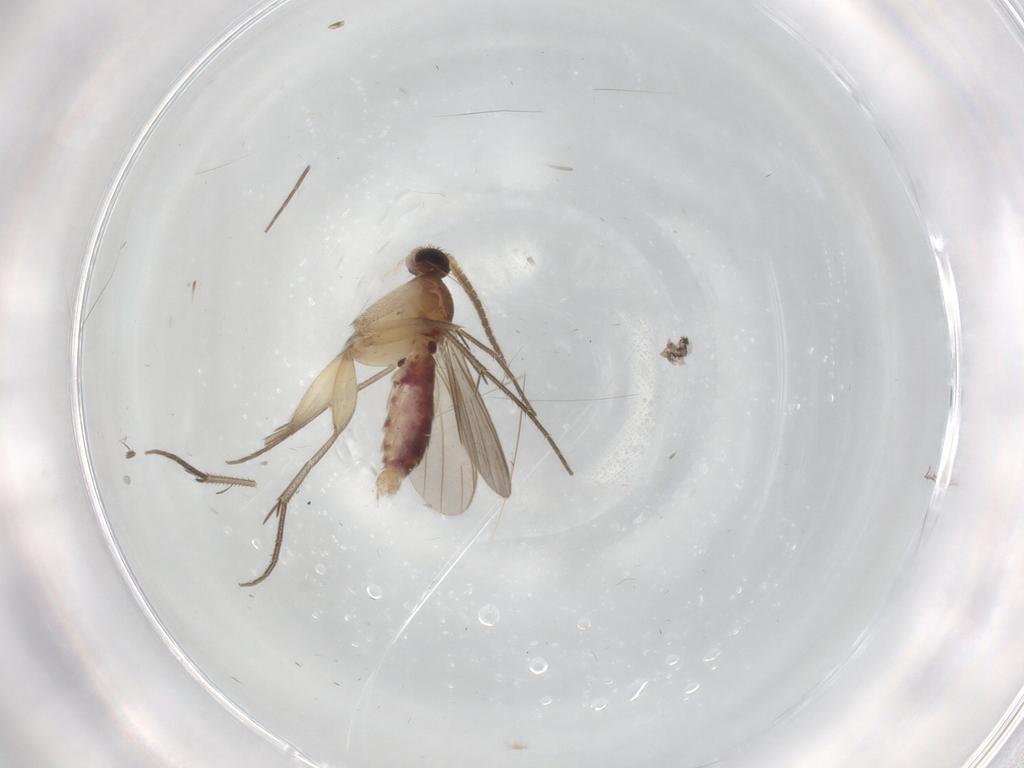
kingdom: Animalia
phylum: Arthropoda
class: Insecta
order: Diptera
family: Mycetophilidae
